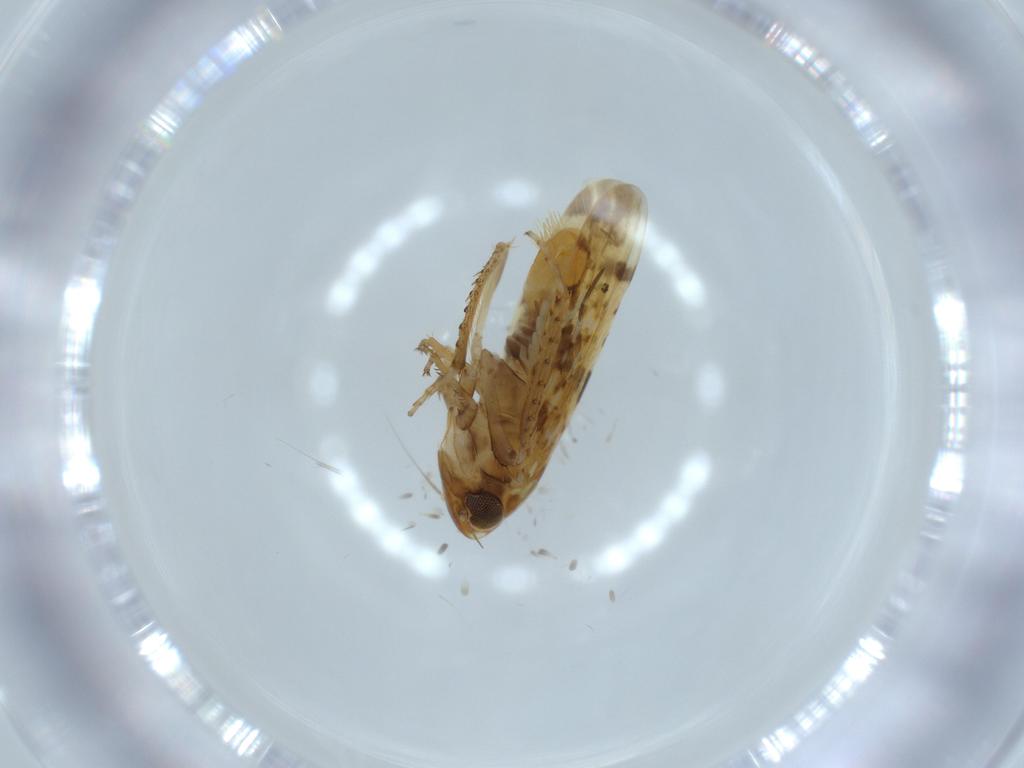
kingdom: Animalia
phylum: Arthropoda
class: Insecta
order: Hemiptera
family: Cicadellidae
